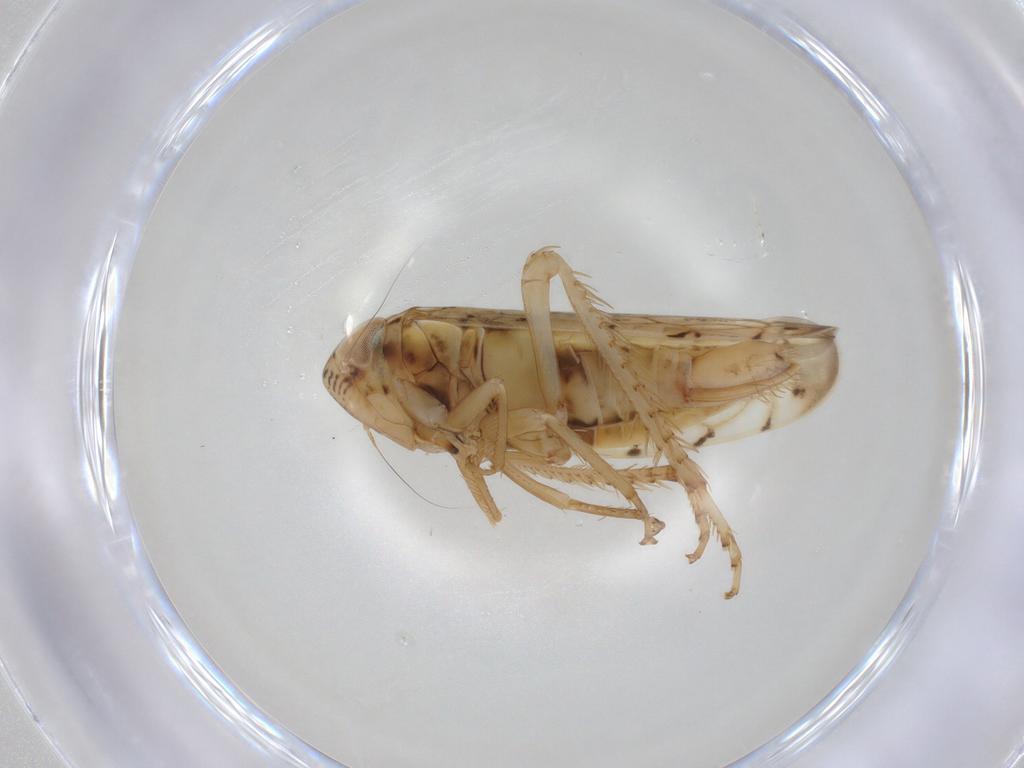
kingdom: Animalia
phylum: Arthropoda
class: Insecta
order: Hemiptera
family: Cicadellidae
